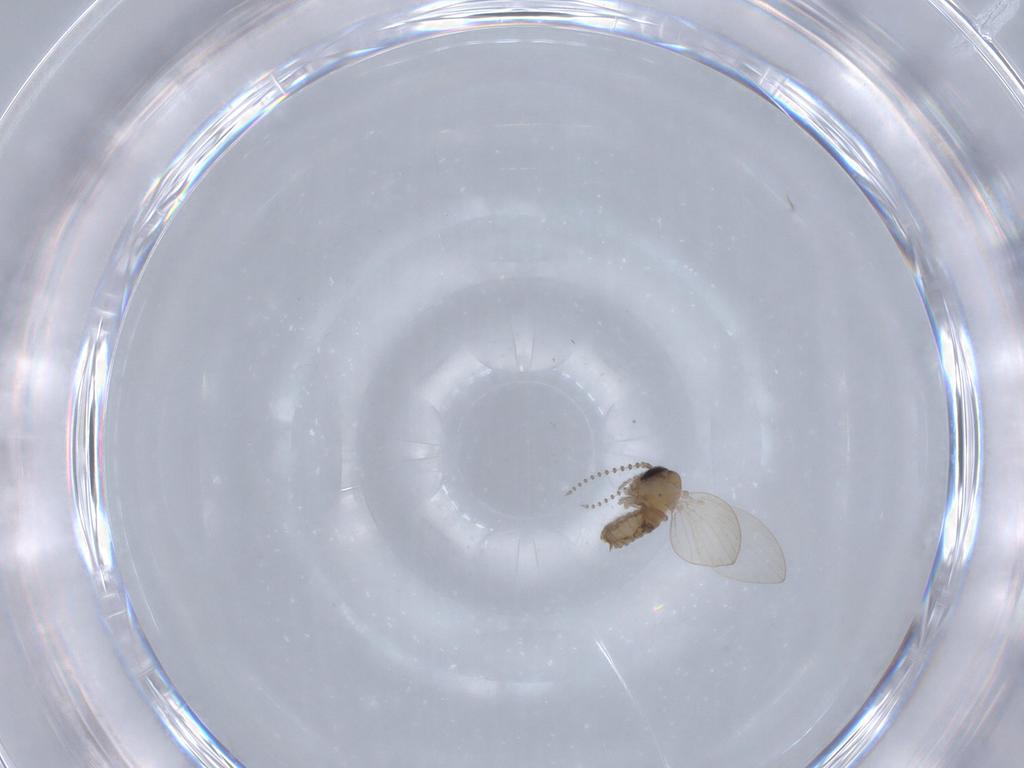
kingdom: Animalia
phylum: Arthropoda
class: Insecta
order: Diptera
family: Psychodidae
